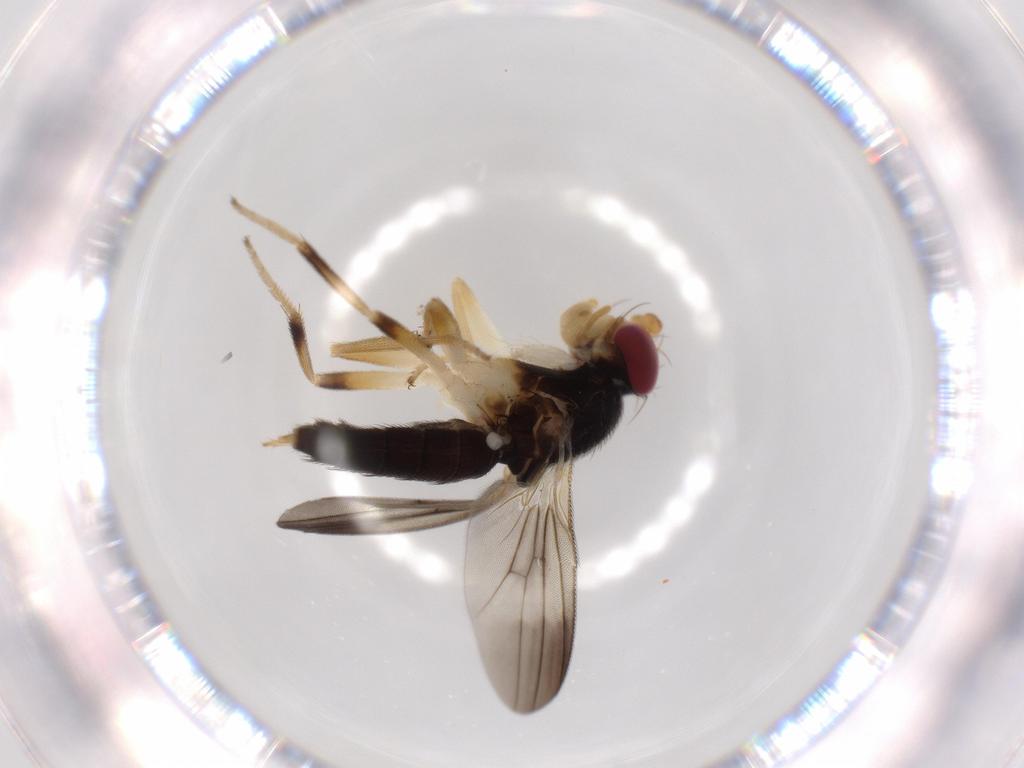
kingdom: Animalia
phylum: Arthropoda
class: Insecta
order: Diptera
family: Clusiidae
